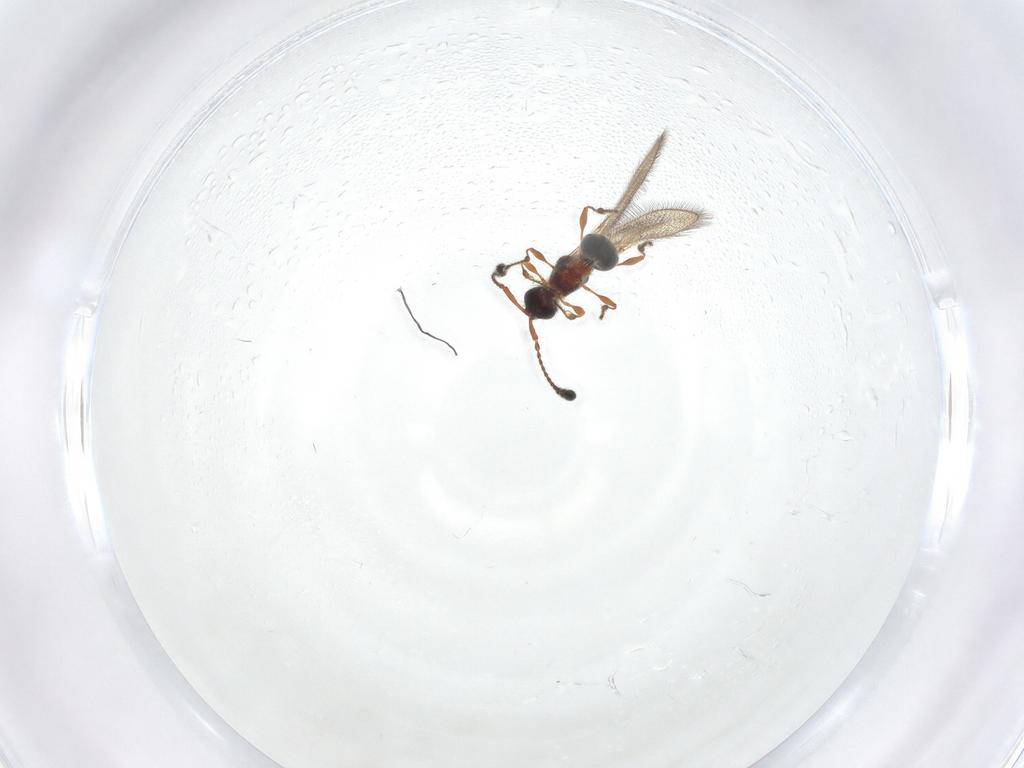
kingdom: Animalia
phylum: Arthropoda
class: Insecta
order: Hymenoptera
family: Diapriidae
